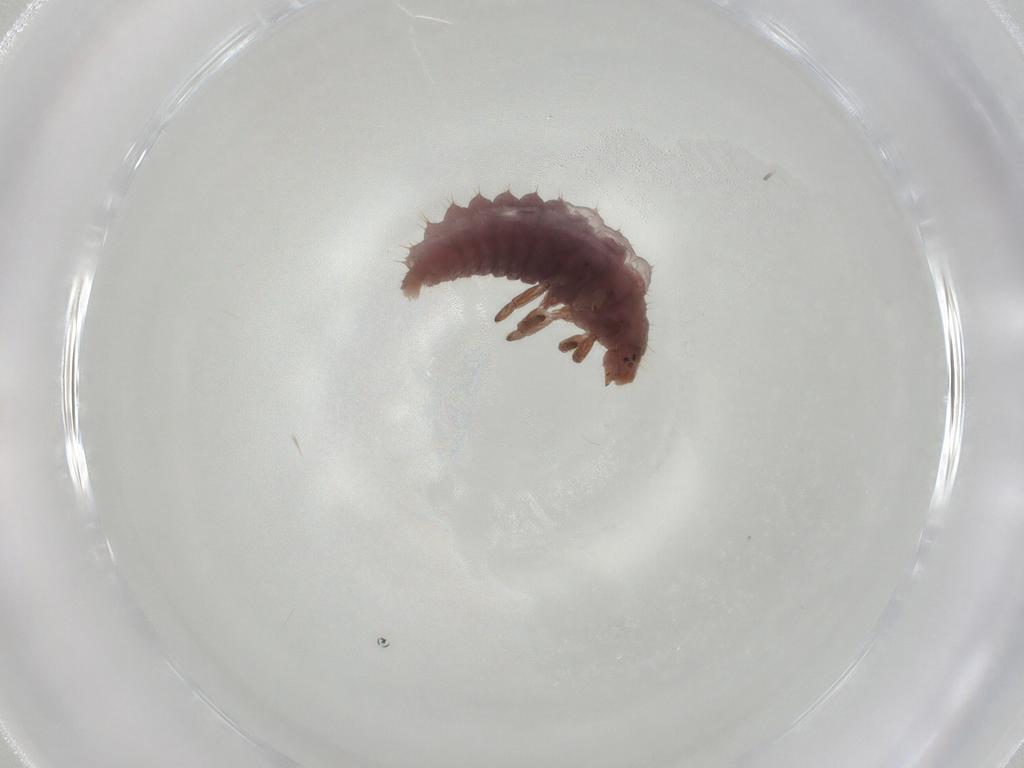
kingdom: Animalia
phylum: Arthropoda
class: Insecta
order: Coleoptera
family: Coccinellidae
